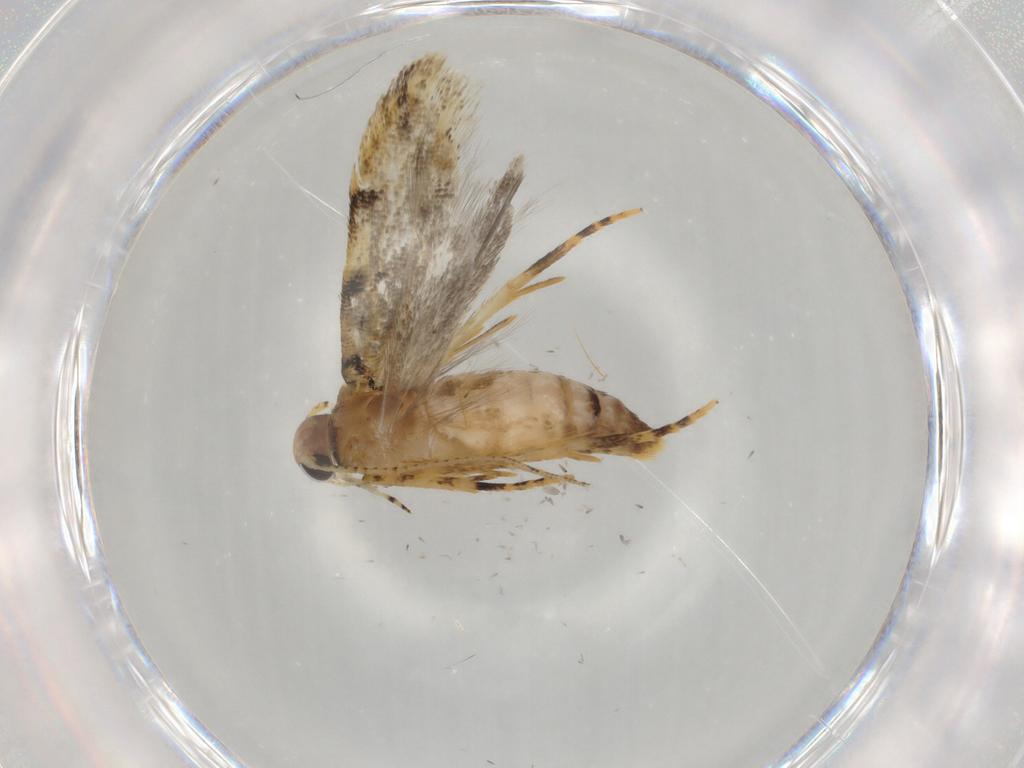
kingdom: Animalia
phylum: Arthropoda
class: Insecta
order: Lepidoptera
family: Gelechiidae
